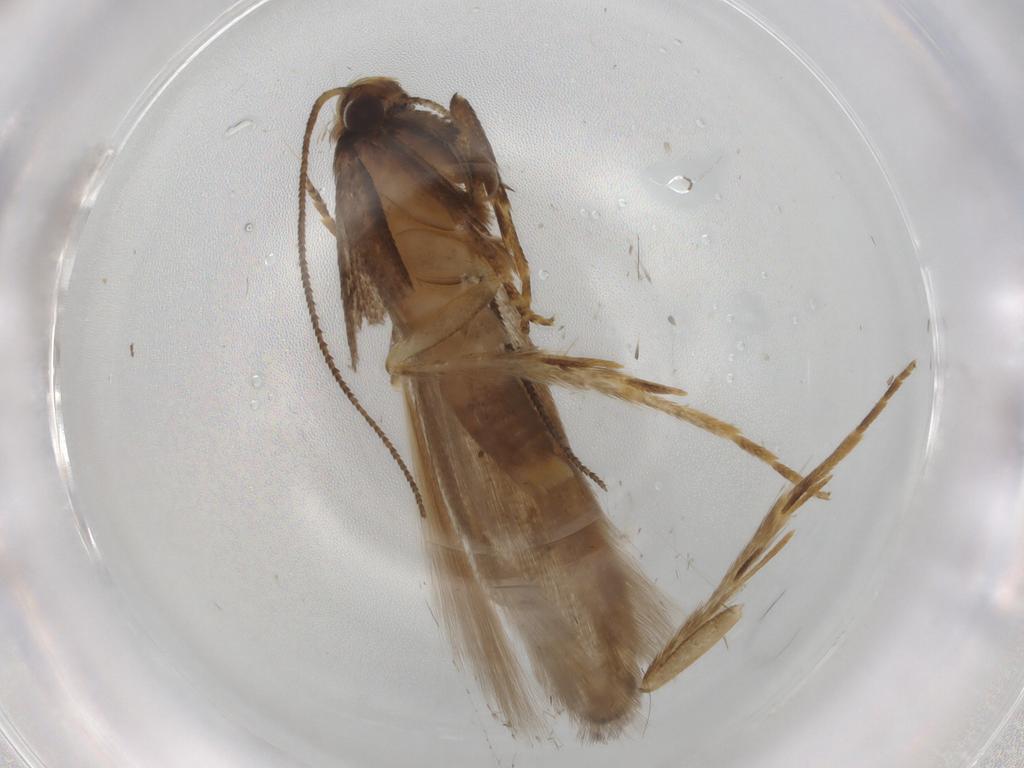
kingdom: Animalia
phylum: Arthropoda
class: Insecta
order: Lepidoptera
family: Gelechiidae
